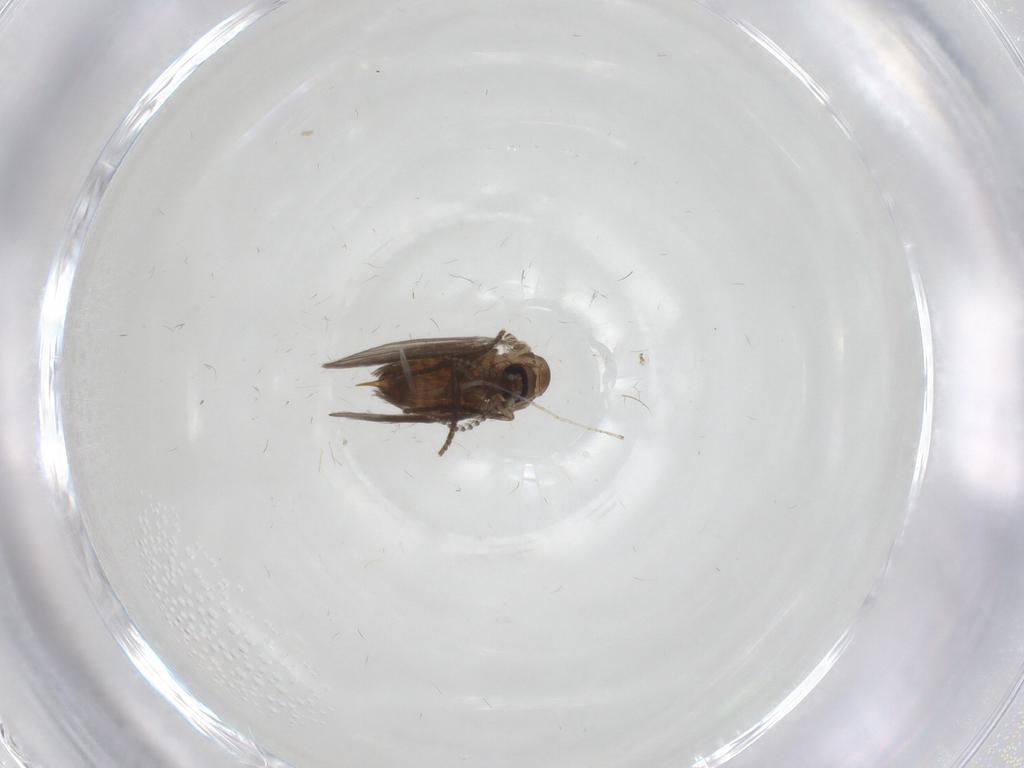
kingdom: Animalia
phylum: Arthropoda
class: Insecta
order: Diptera
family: Psychodidae
